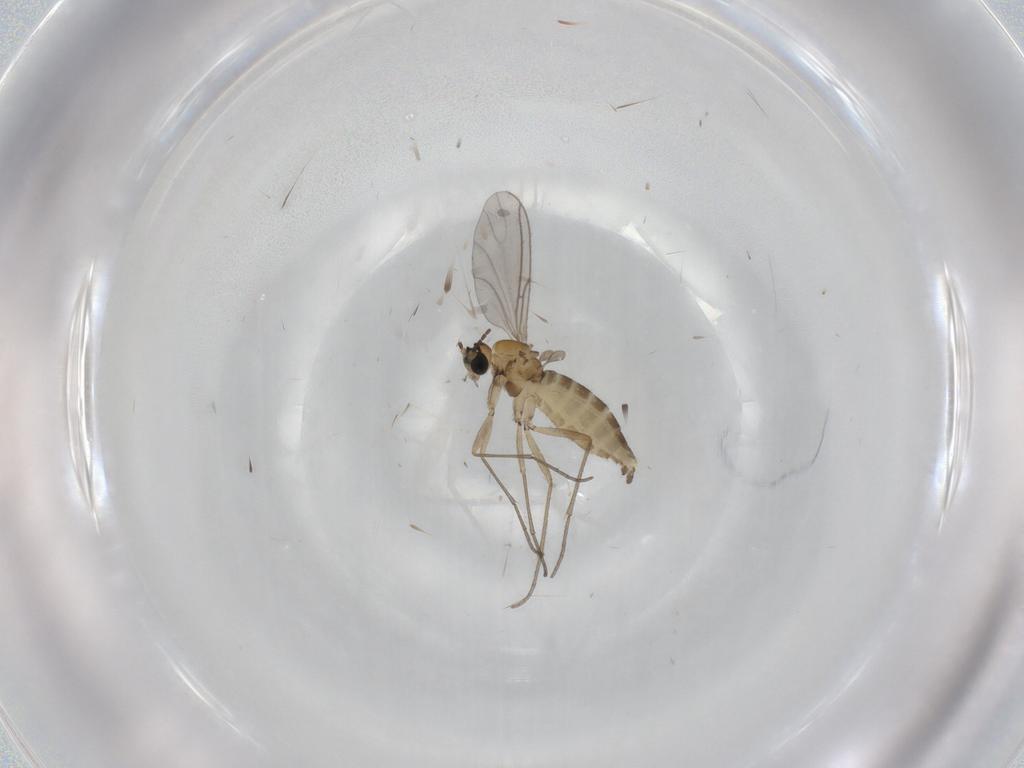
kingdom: Animalia
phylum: Arthropoda
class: Insecta
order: Diptera
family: Sciaridae
